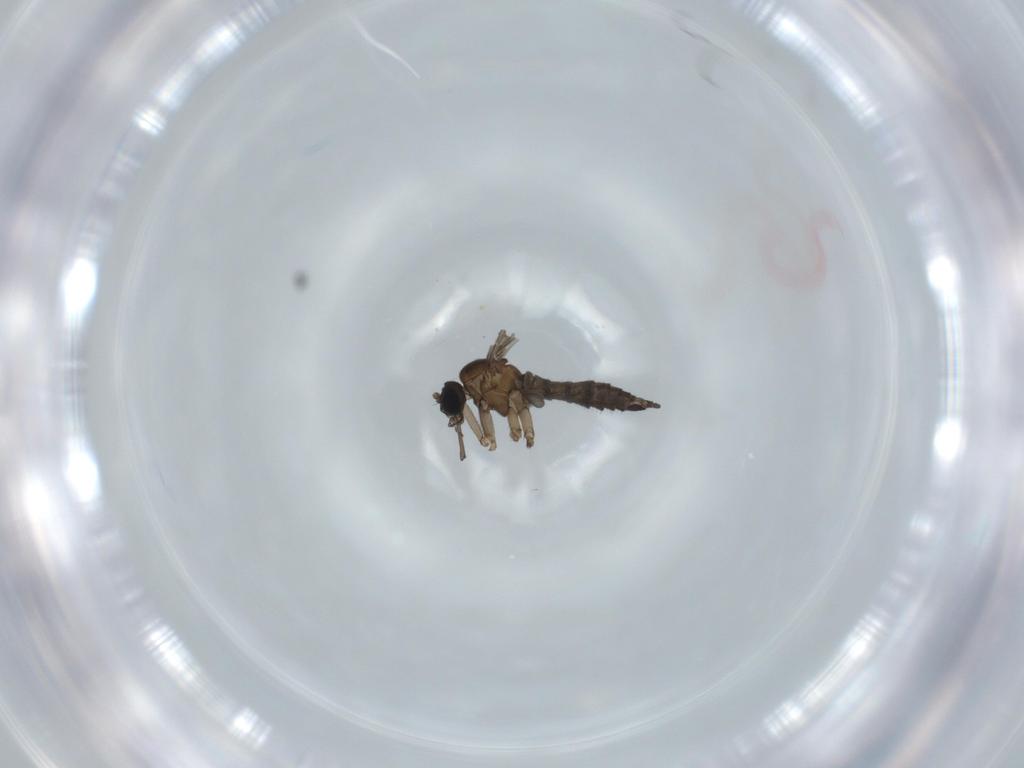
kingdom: Animalia
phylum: Arthropoda
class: Insecta
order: Diptera
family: Sciaridae
